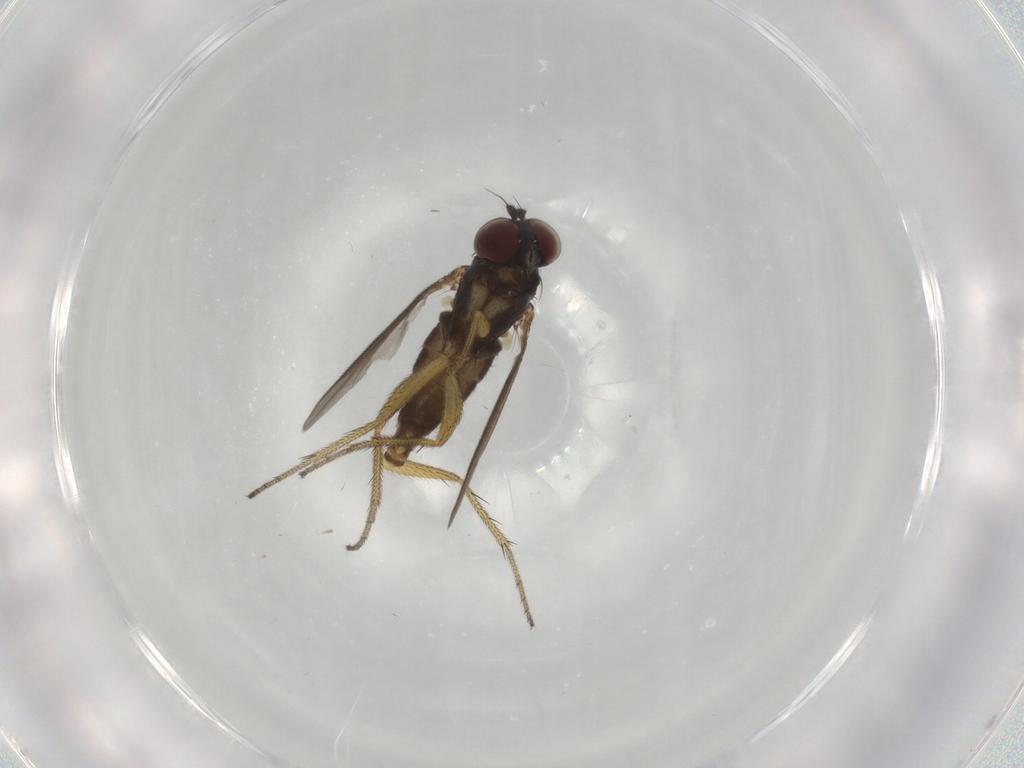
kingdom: Animalia
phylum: Arthropoda
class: Insecta
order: Diptera
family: Dolichopodidae
